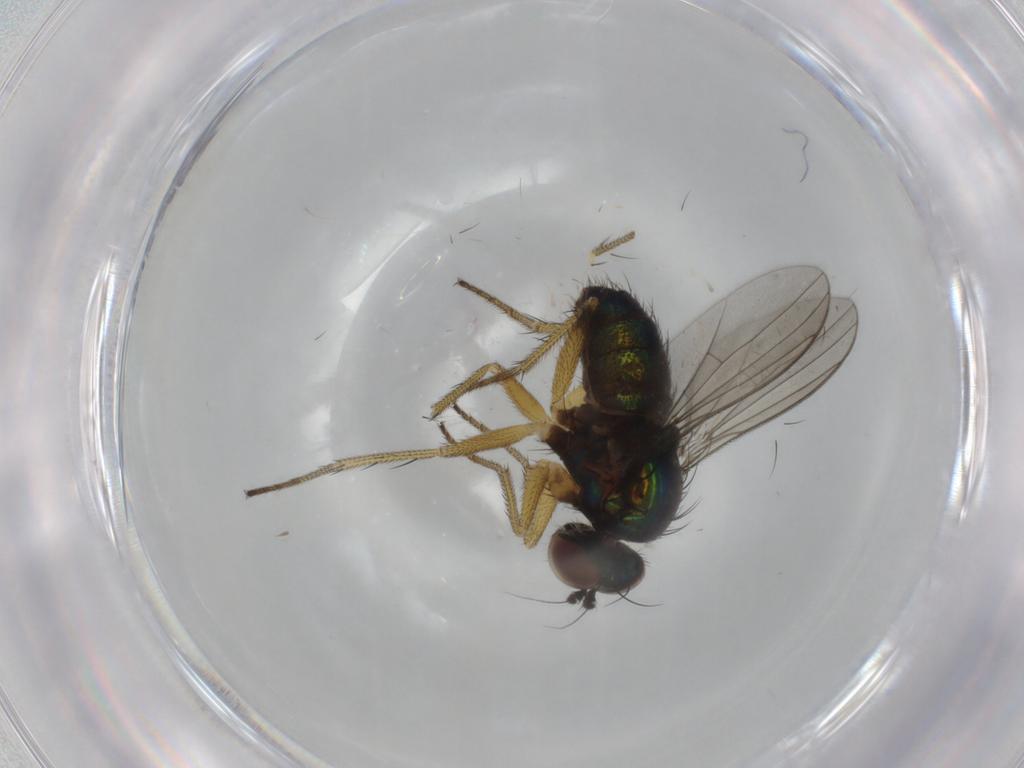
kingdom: Animalia
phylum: Arthropoda
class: Insecta
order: Diptera
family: Dolichopodidae
